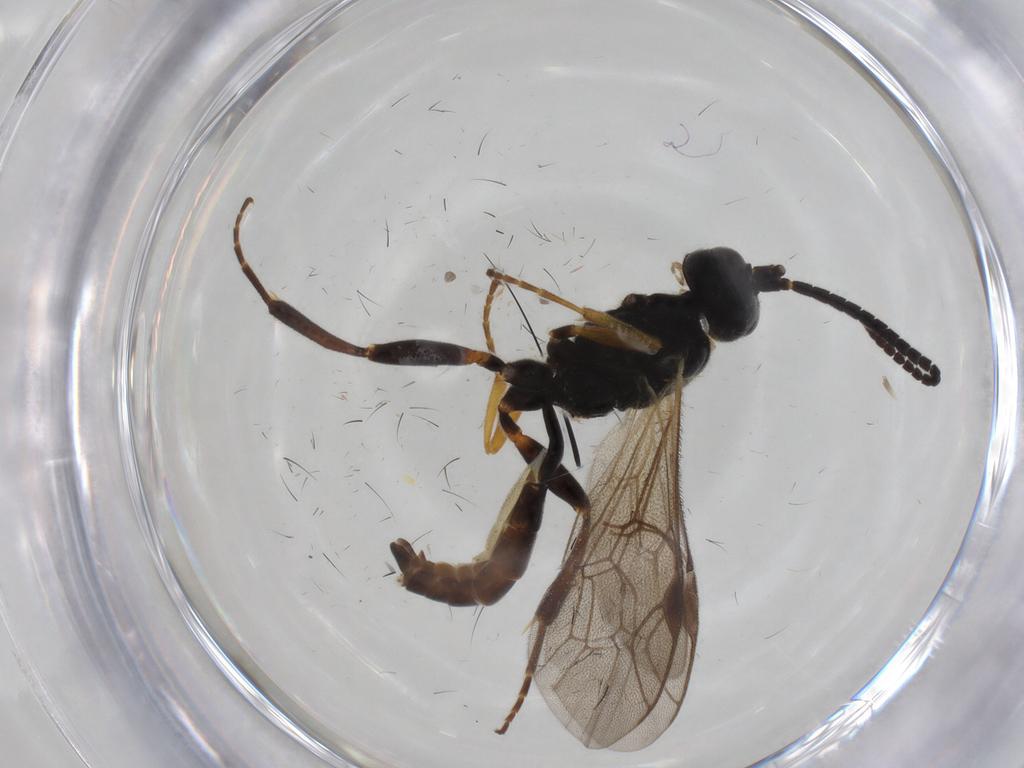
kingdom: Animalia
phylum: Arthropoda
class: Insecta
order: Hymenoptera
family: Ichneumonidae
